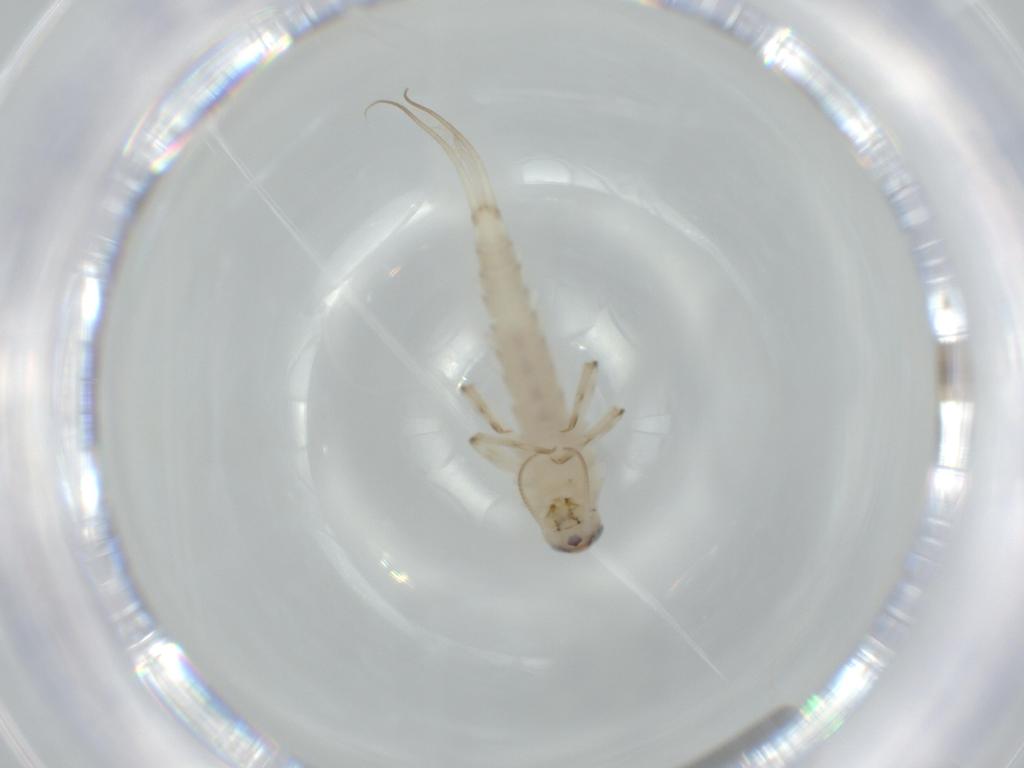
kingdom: Animalia
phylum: Arthropoda
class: Insecta
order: Ephemeroptera
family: Baetidae
